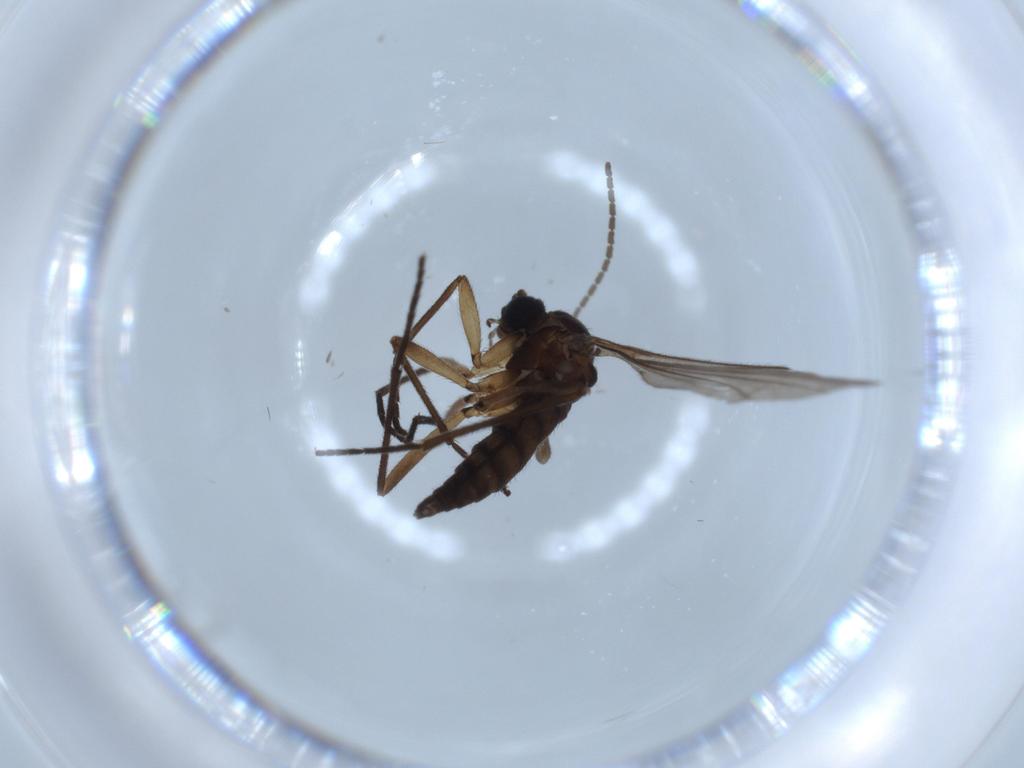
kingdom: Animalia
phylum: Arthropoda
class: Insecta
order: Diptera
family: Sciaridae
